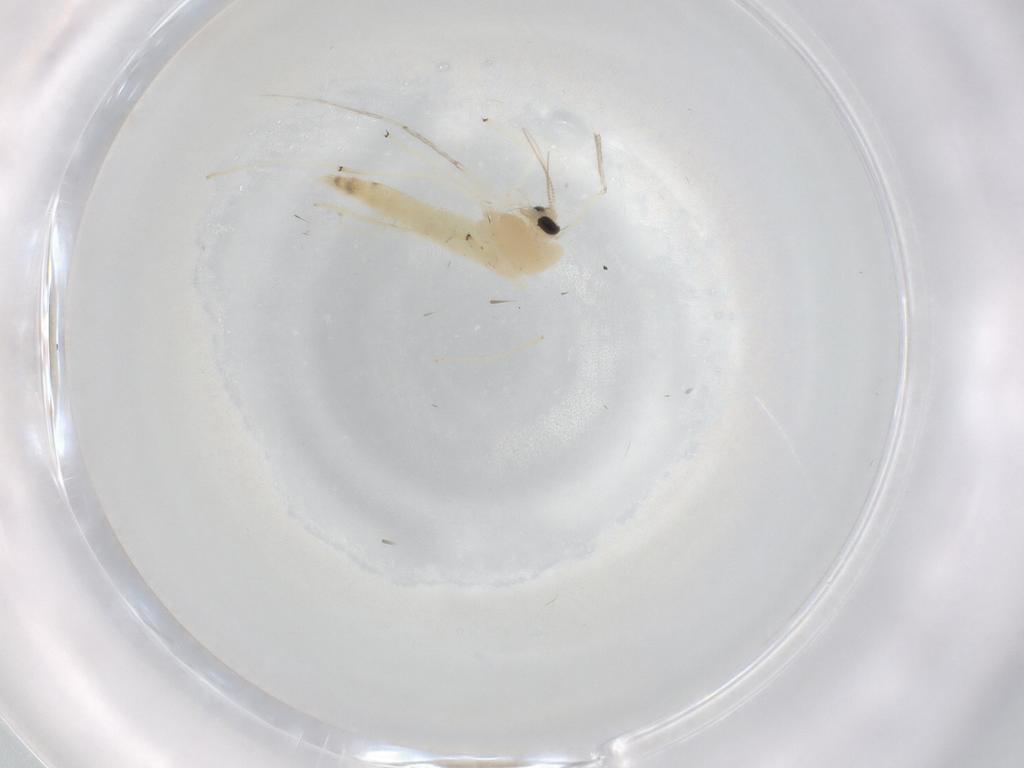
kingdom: Animalia
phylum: Arthropoda
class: Insecta
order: Diptera
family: Chironomidae
